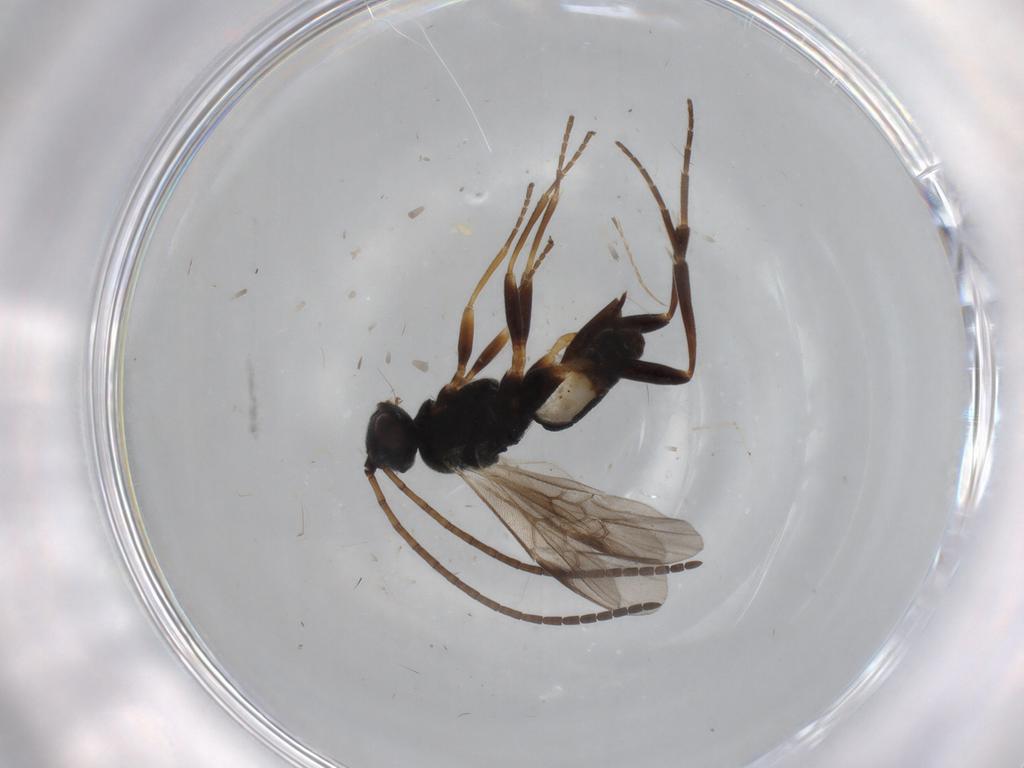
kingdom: Animalia
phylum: Arthropoda
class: Insecta
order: Hymenoptera
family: Braconidae
